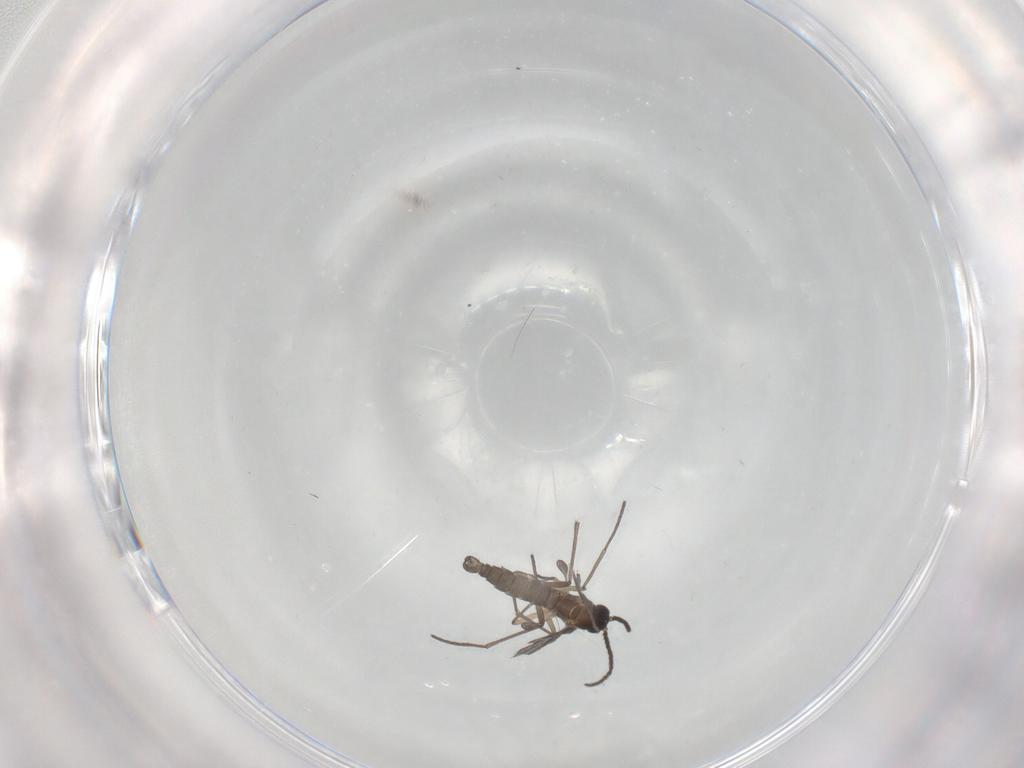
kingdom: Animalia
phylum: Arthropoda
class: Insecta
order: Diptera
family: Sciaridae
